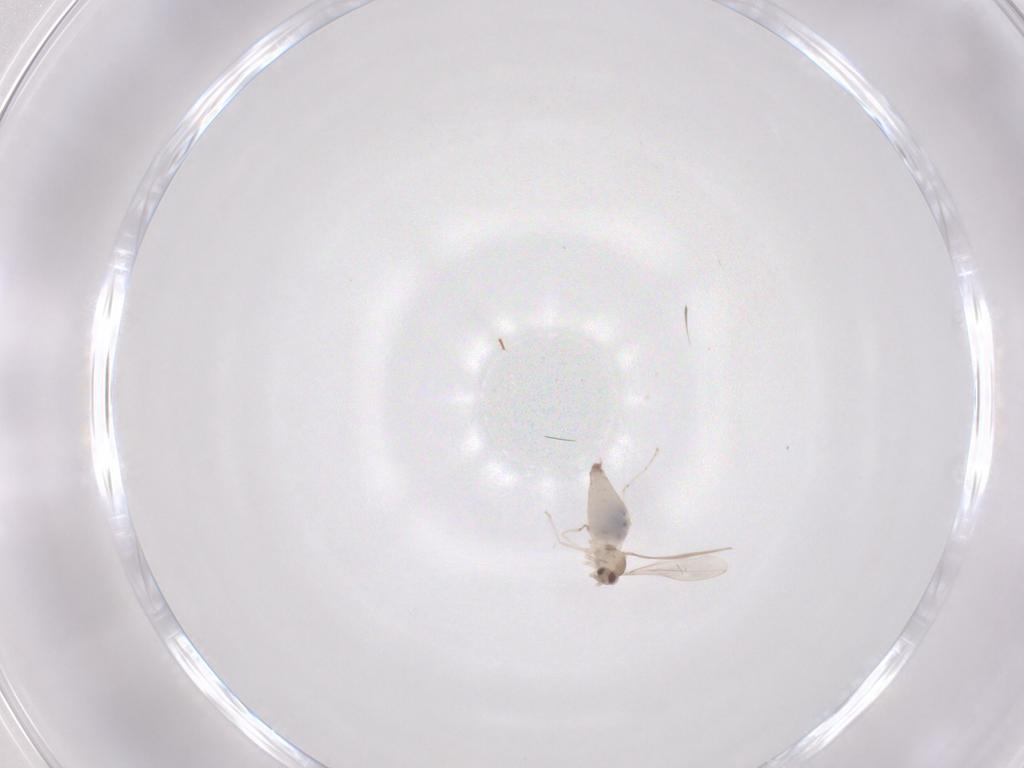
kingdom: Animalia
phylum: Arthropoda
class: Insecta
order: Diptera
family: Cecidomyiidae
